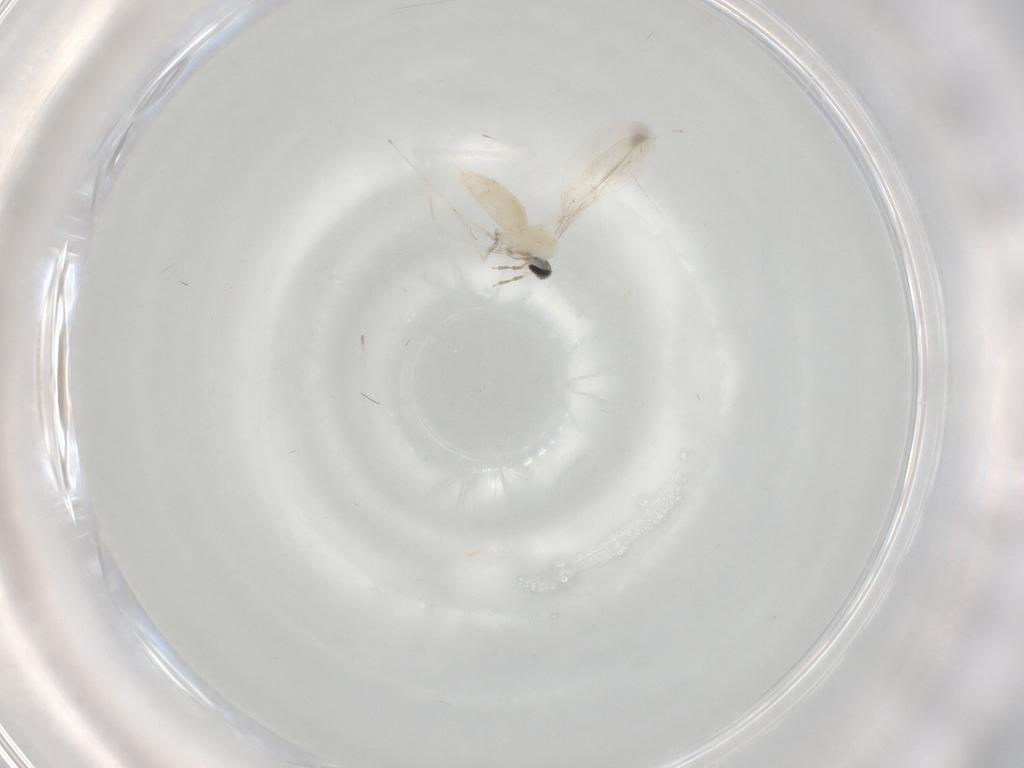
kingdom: Animalia
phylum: Arthropoda
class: Insecta
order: Diptera
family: Cecidomyiidae
